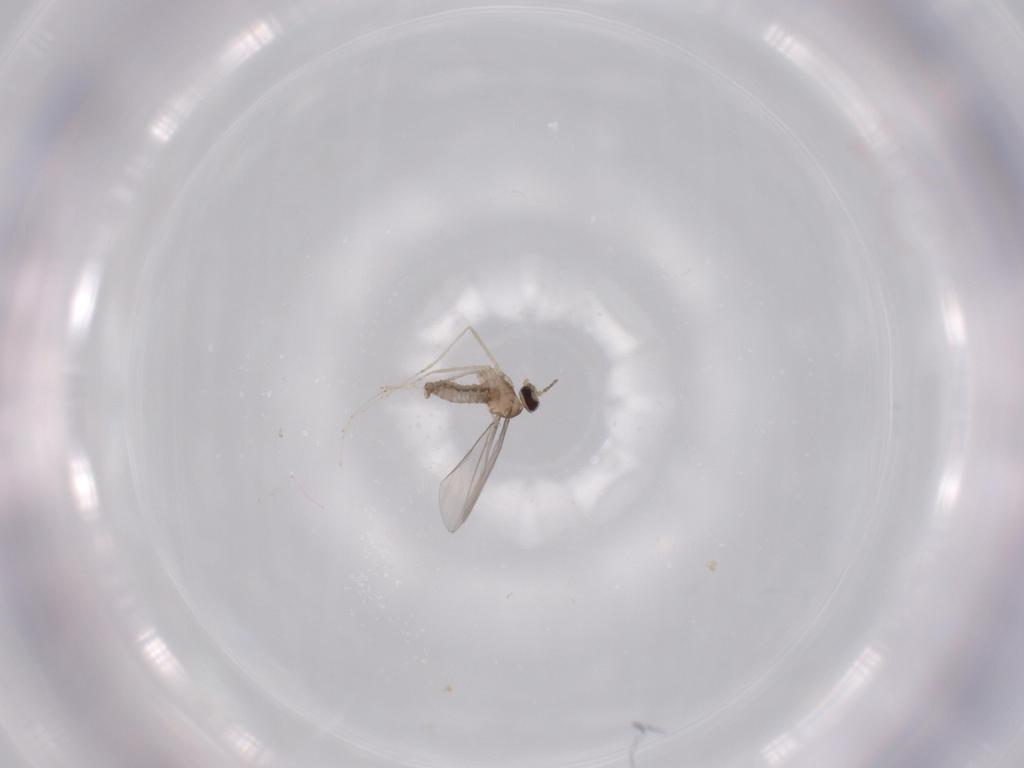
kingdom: Animalia
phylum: Arthropoda
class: Insecta
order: Diptera
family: Cecidomyiidae
